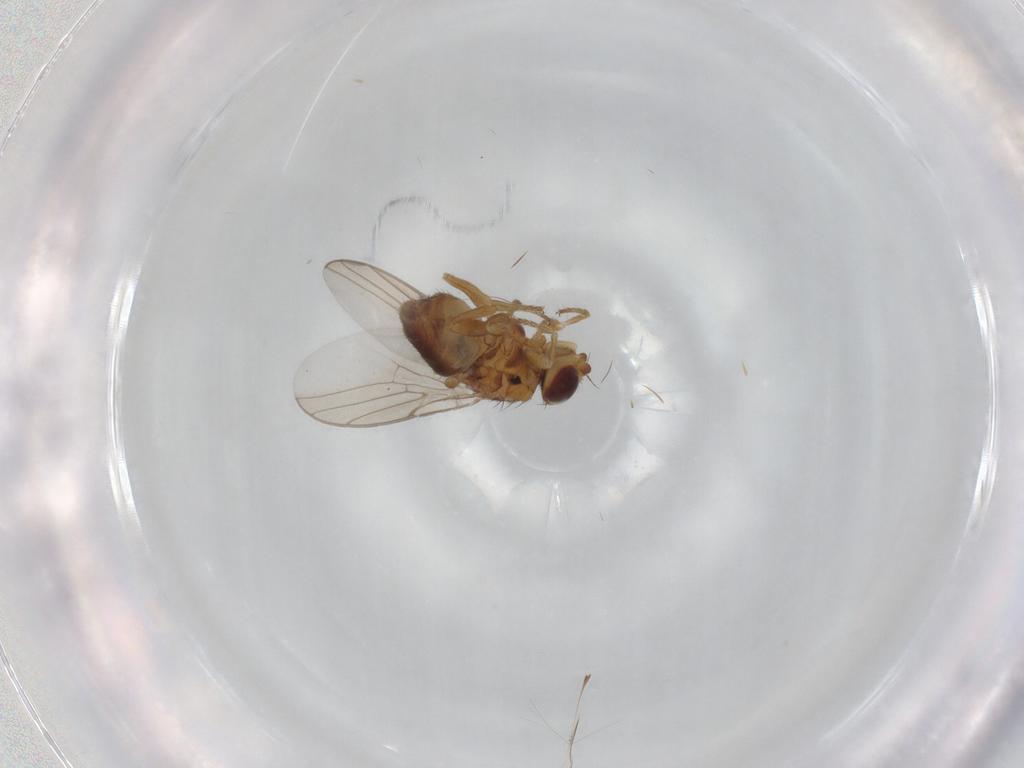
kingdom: Animalia
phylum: Arthropoda
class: Insecta
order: Diptera
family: Chloropidae
